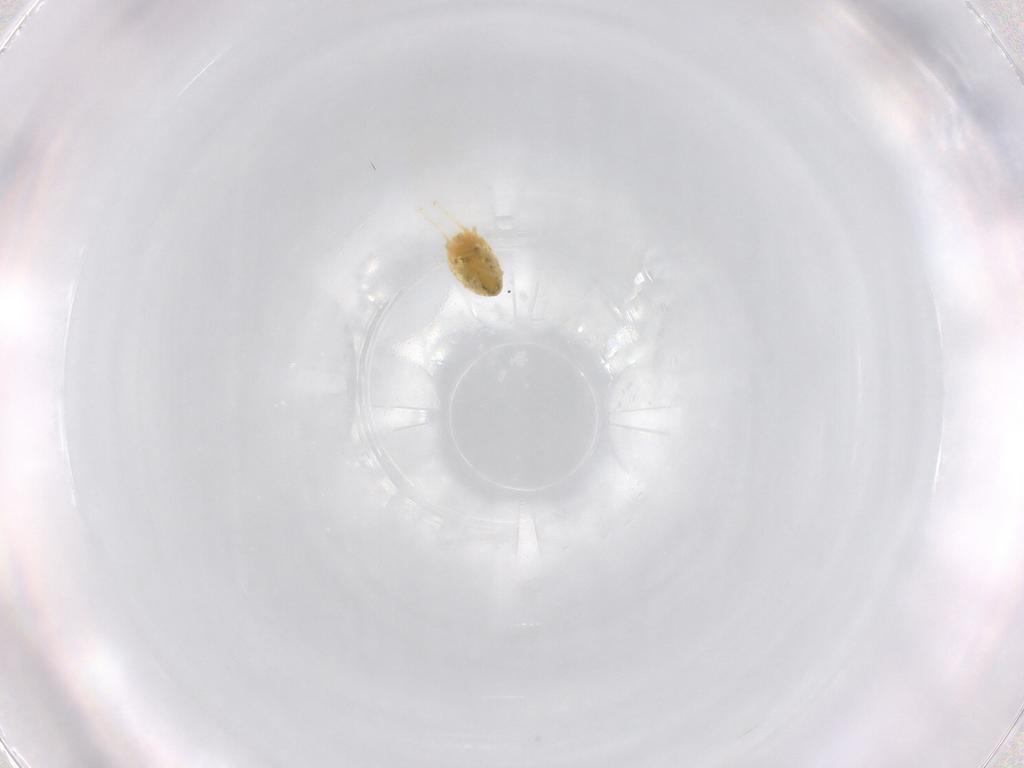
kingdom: Animalia
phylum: Arthropoda
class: Arachnida
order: Trombidiformes
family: Tetranychidae
